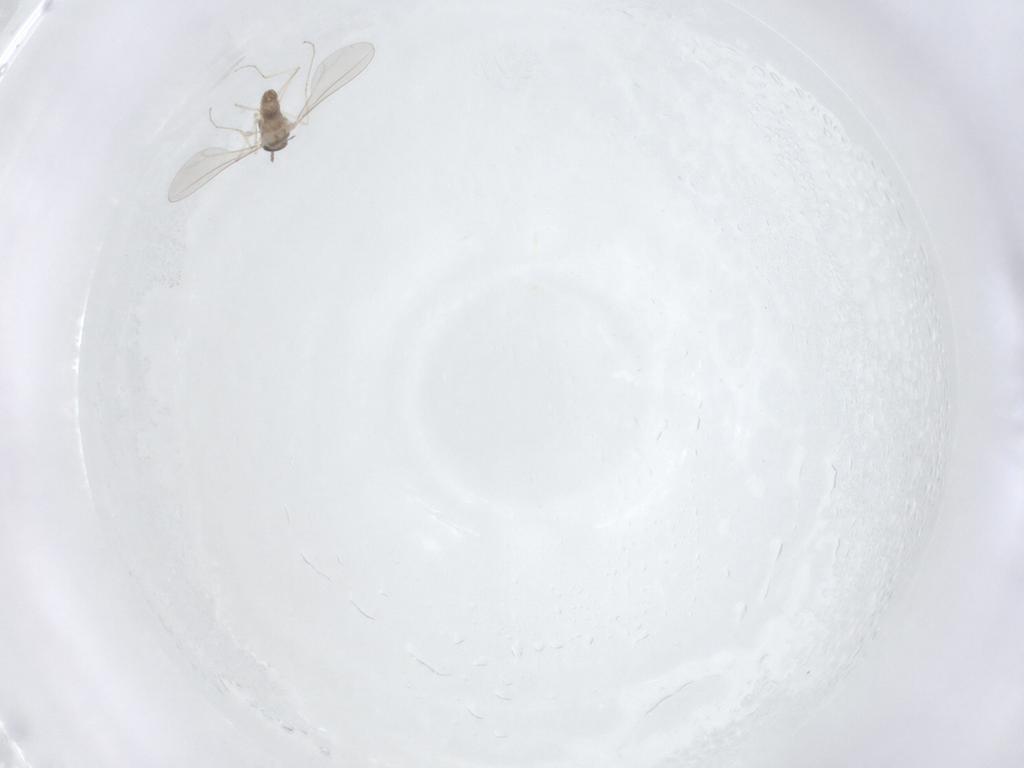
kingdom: Animalia
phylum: Arthropoda
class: Insecta
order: Diptera
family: Cecidomyiidae
